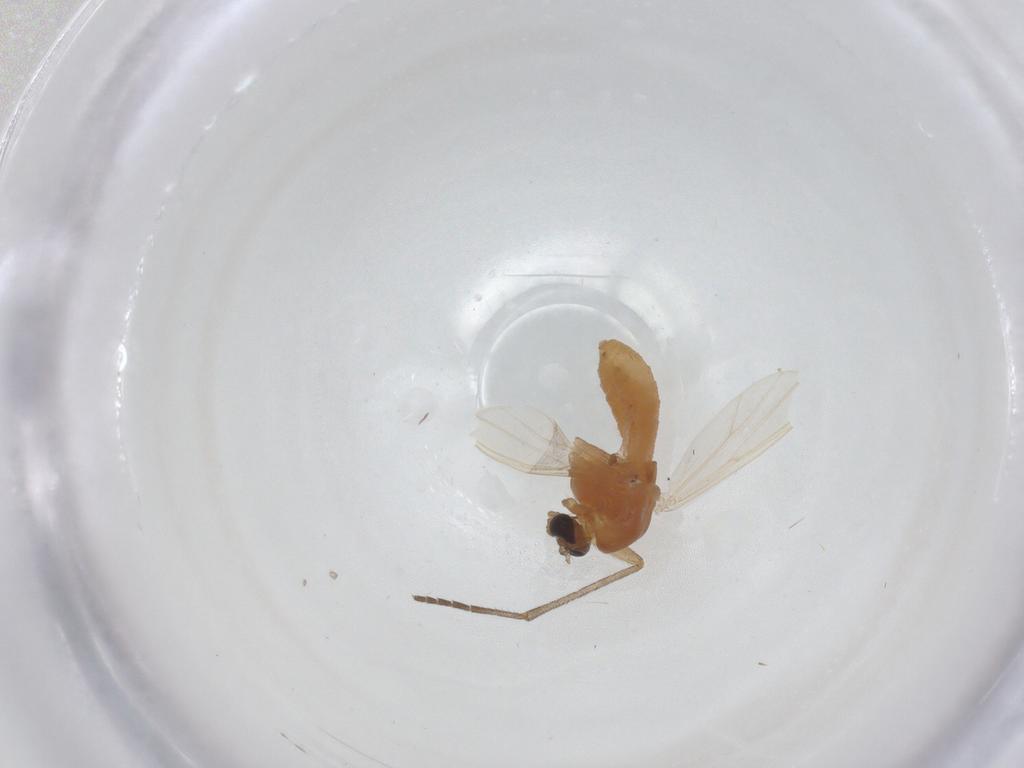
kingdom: Animalia
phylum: Arthropoda
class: Insecta
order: Diptera
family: Chironomidae
